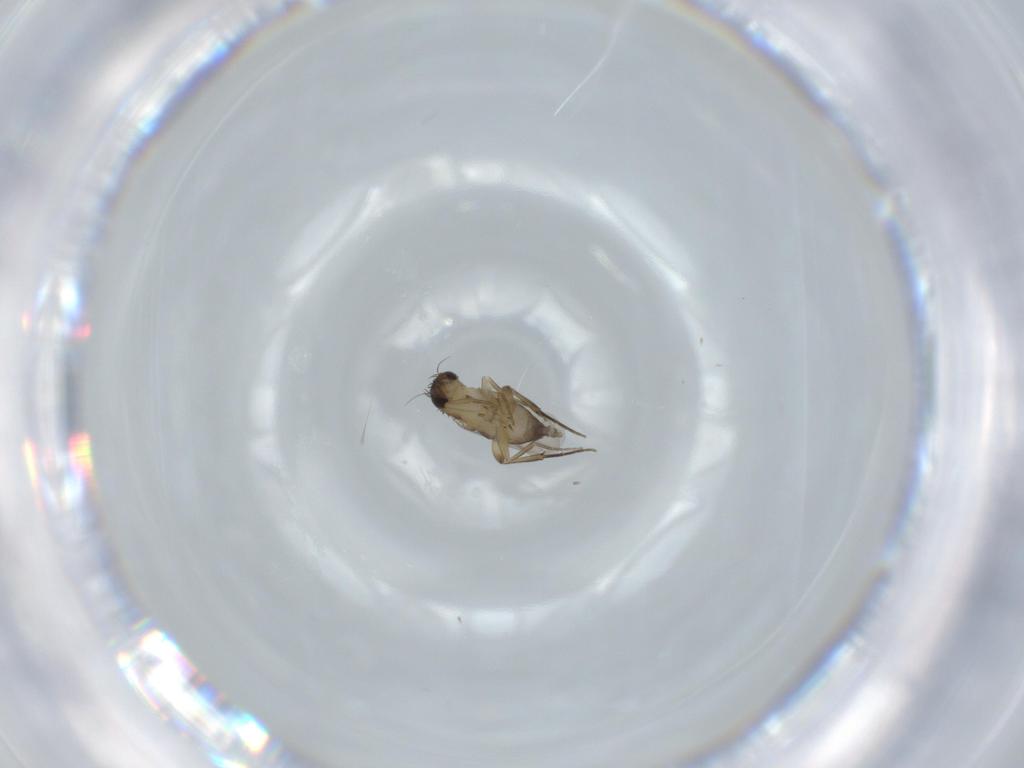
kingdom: Animalia
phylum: Arthropoda
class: Insecta
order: Diptera
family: Phoridae
